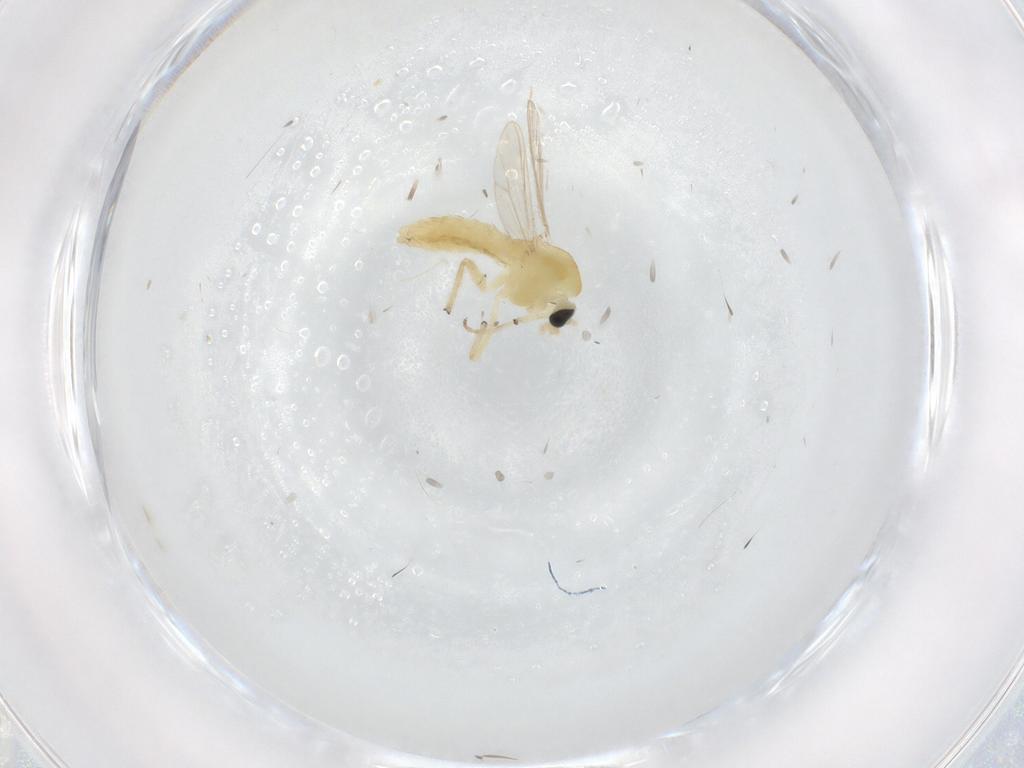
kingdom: Animalia
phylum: Arthropoda
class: Insecta
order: Diptera
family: Chironomidae
